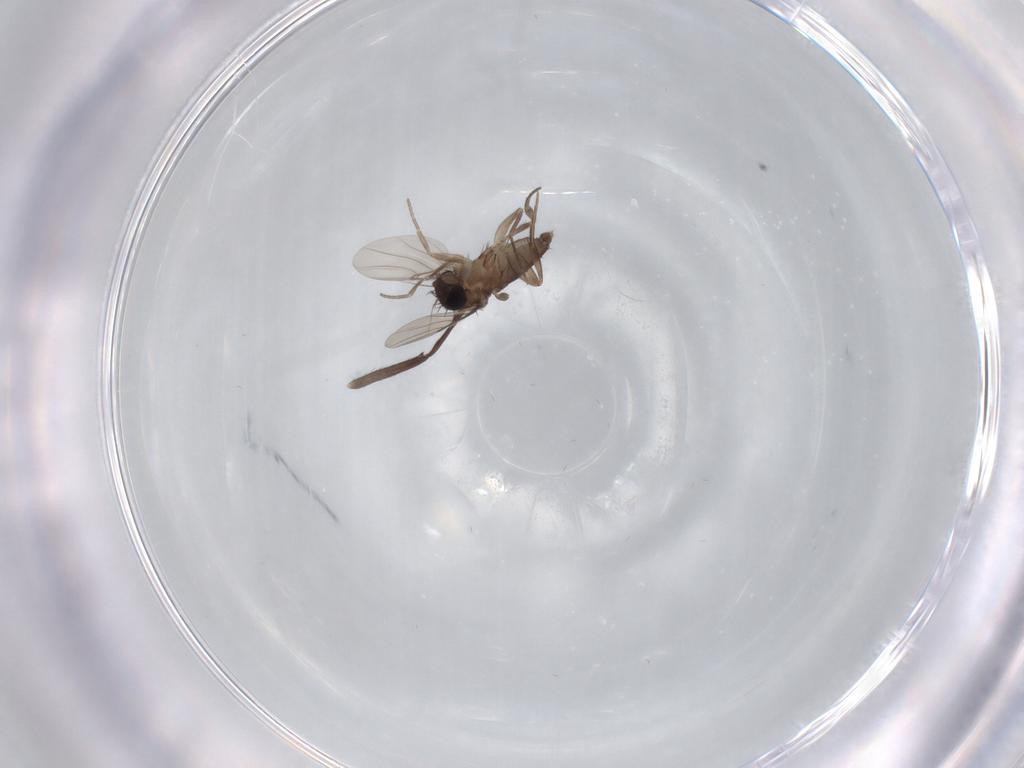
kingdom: Animalia
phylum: Arthropoda
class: Insecta
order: Diptera
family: Phoridae
